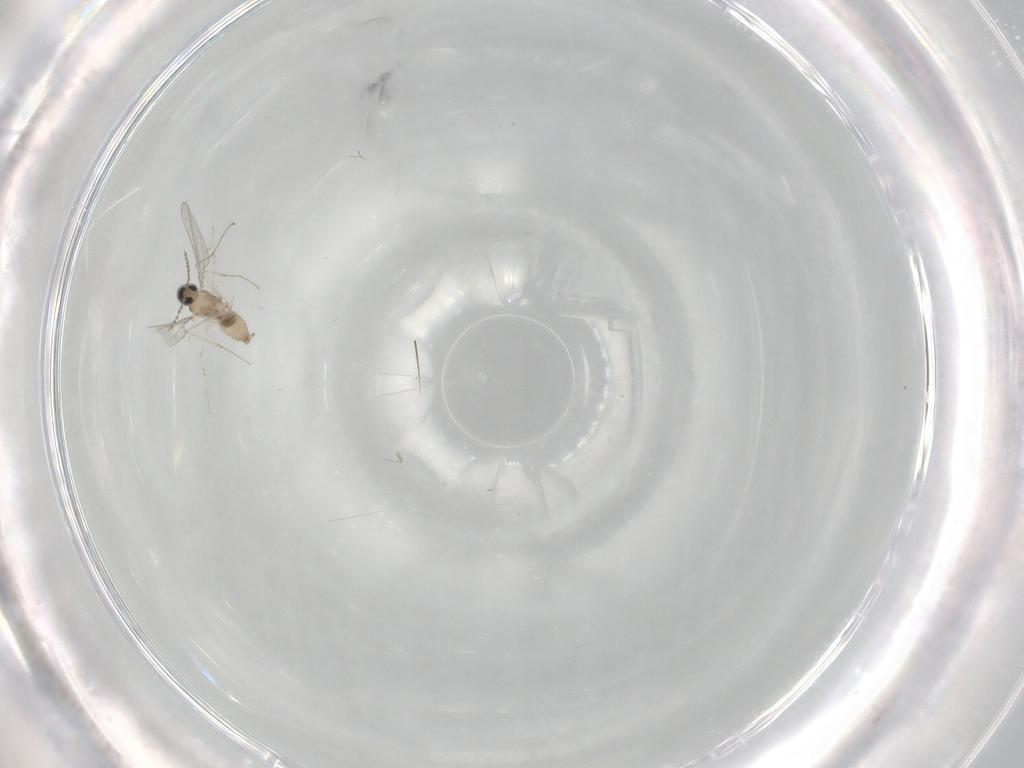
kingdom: Animalia
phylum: Arthropoda
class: Insecta
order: Diptera
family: Cecidomyiidae
